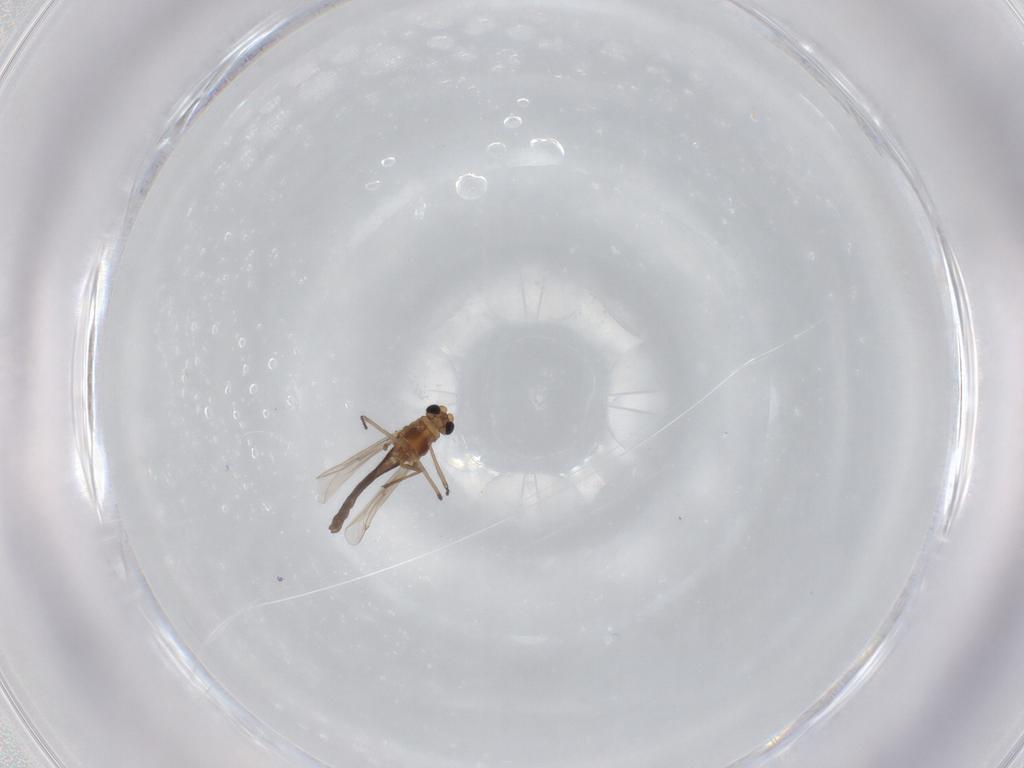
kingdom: Animalia
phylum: Arthropoda
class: Insecta
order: Diptera
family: Chironomidae
